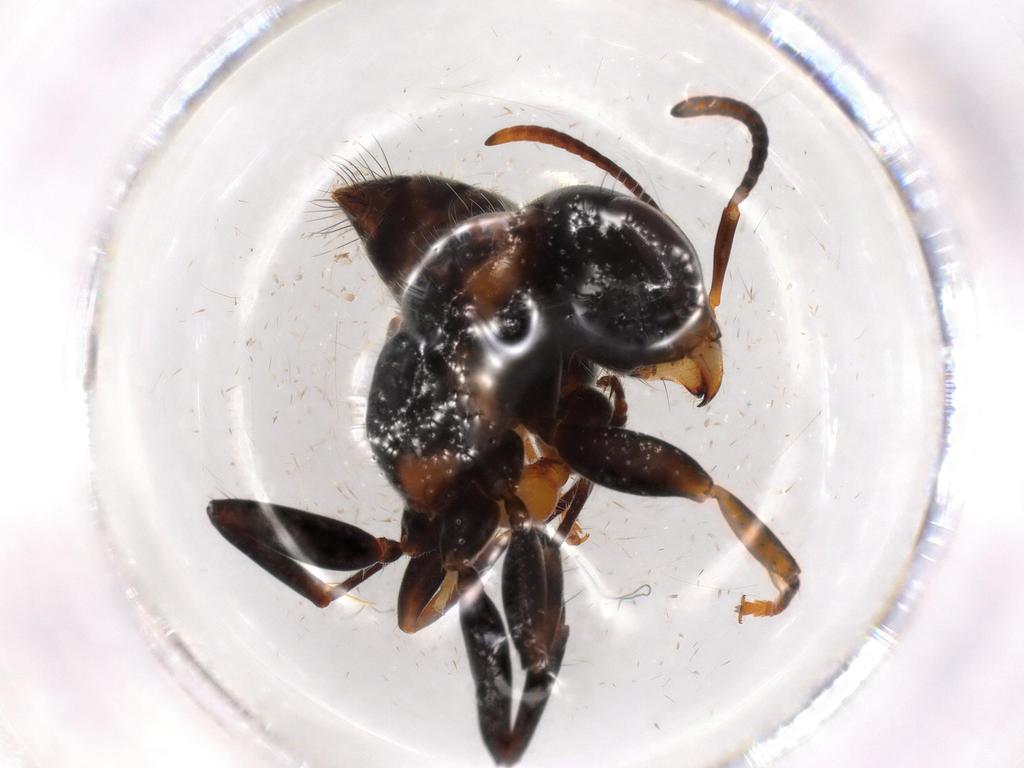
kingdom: Animalia
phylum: Arthropoda
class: Insecta
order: Hymenoptera
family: Formicidae
